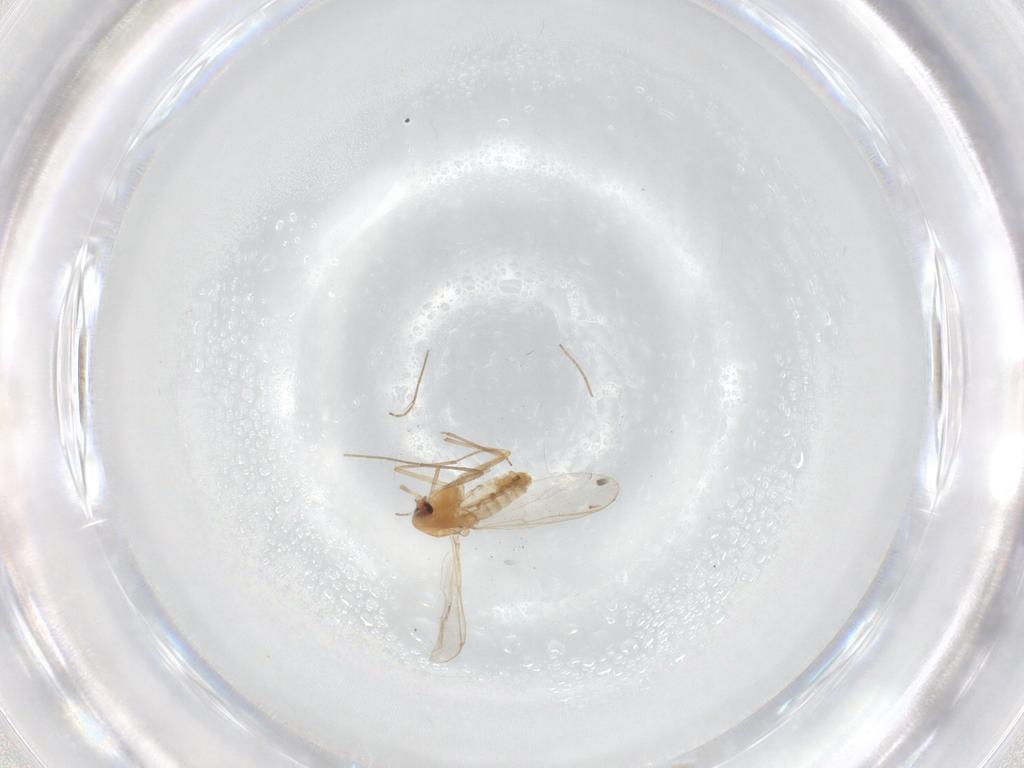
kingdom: Animalia
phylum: Arthropoda
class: Insecta
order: Diptera
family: Chironomidae
